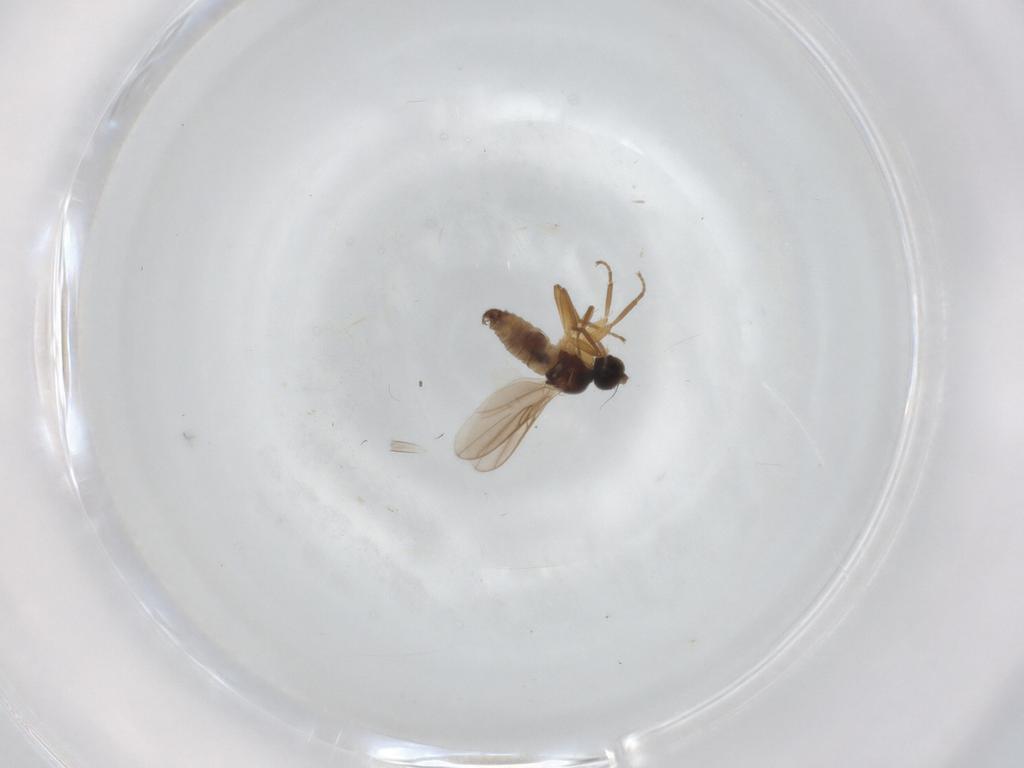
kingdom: Animalia
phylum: Arthropoda
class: Insecta
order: Diptera
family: Hybotidae
